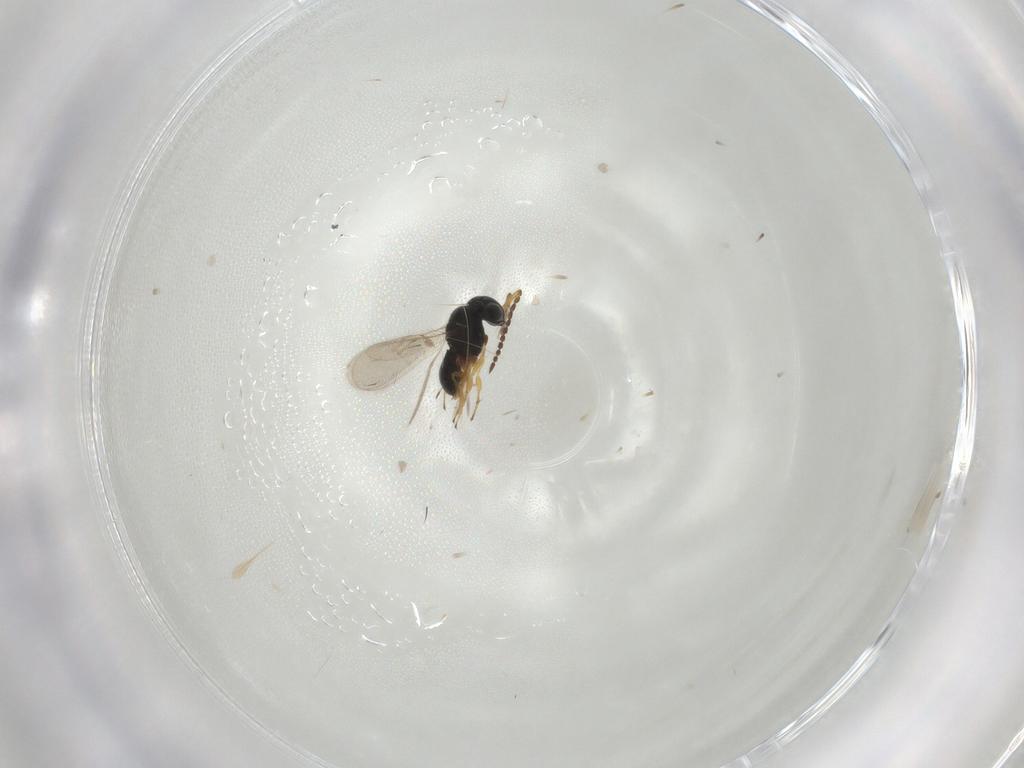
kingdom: Animalia
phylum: Arthropoda
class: Insecta
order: Hymenoptera
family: Scelionidae
